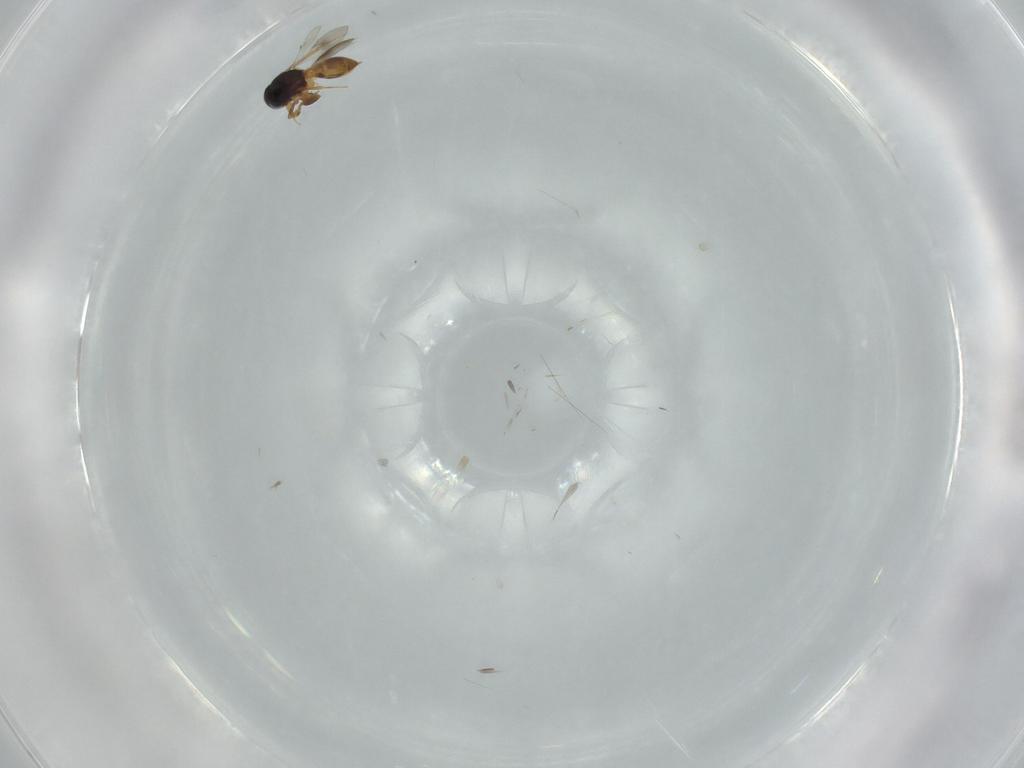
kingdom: Animalia
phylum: Arthropoda
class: Insecta
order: Hymenoptera
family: Scelionidae
